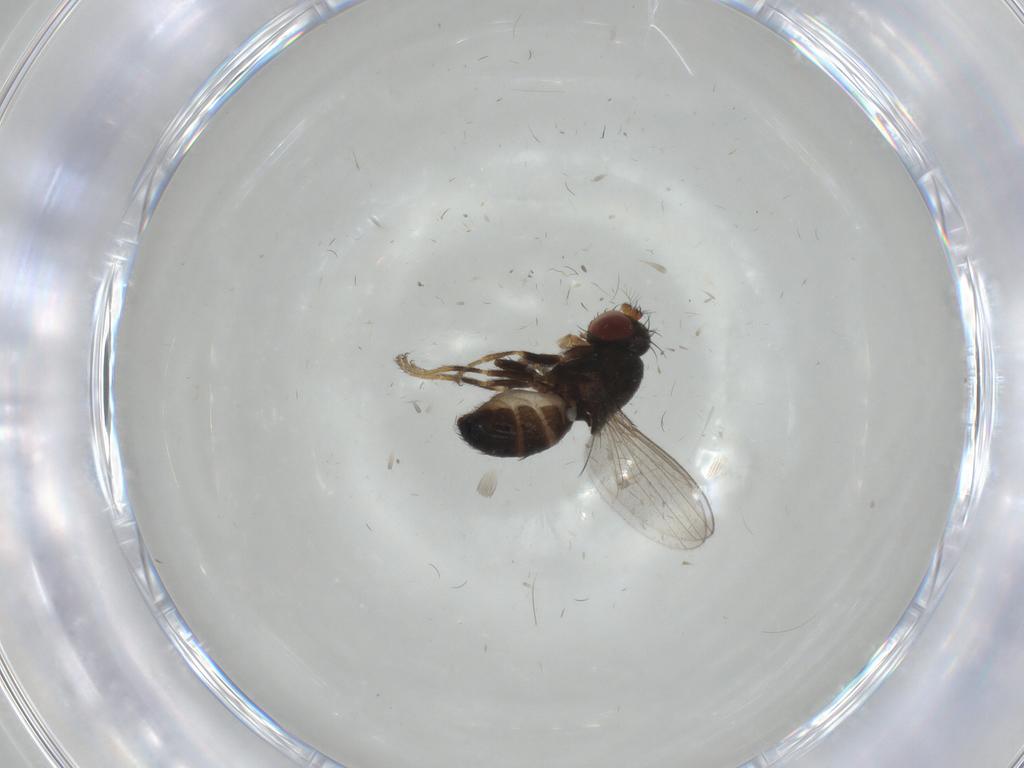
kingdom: Animalia
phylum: Arthropoda
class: Insecta
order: Diptera
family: Ephydridae
